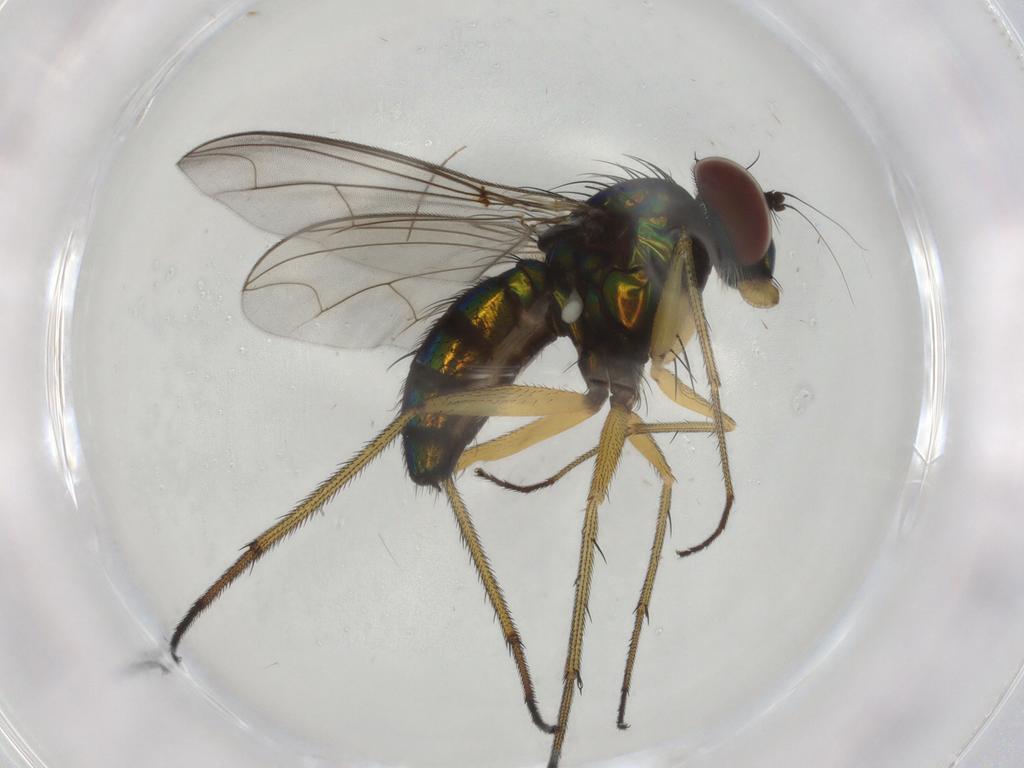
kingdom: Animalia
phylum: Arthropoda
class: Insecta
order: Diptera
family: Dolichopodidae
